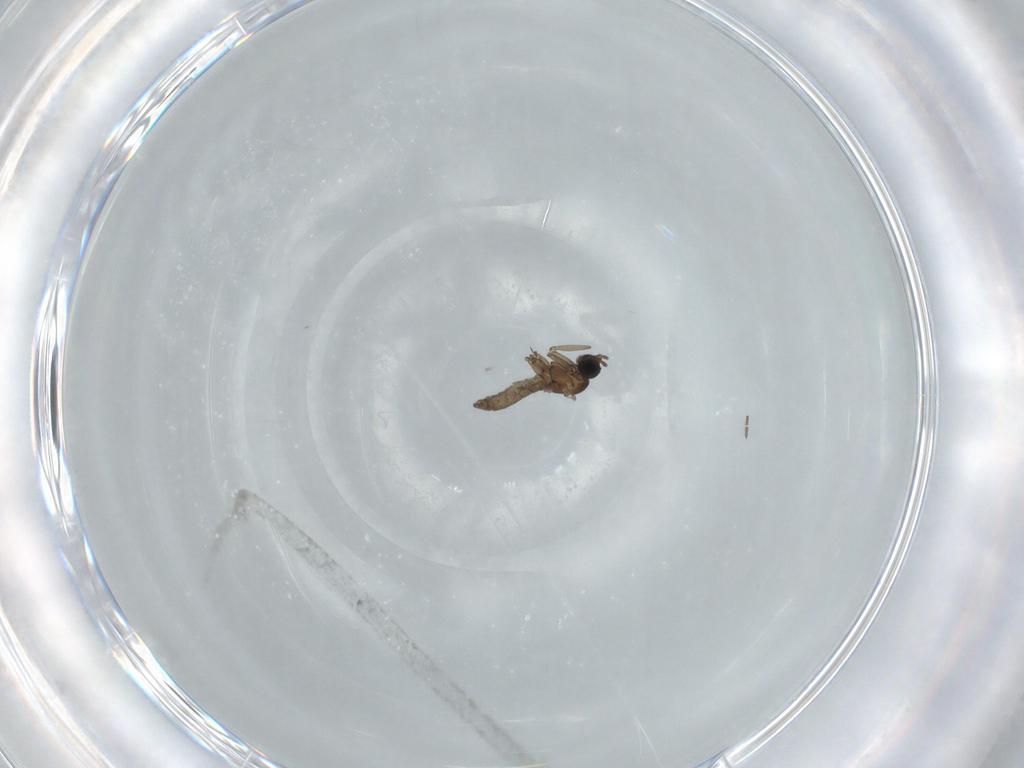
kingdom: Animalia
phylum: Arthropoda
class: Insecta
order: Diptera
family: Sciaridae
